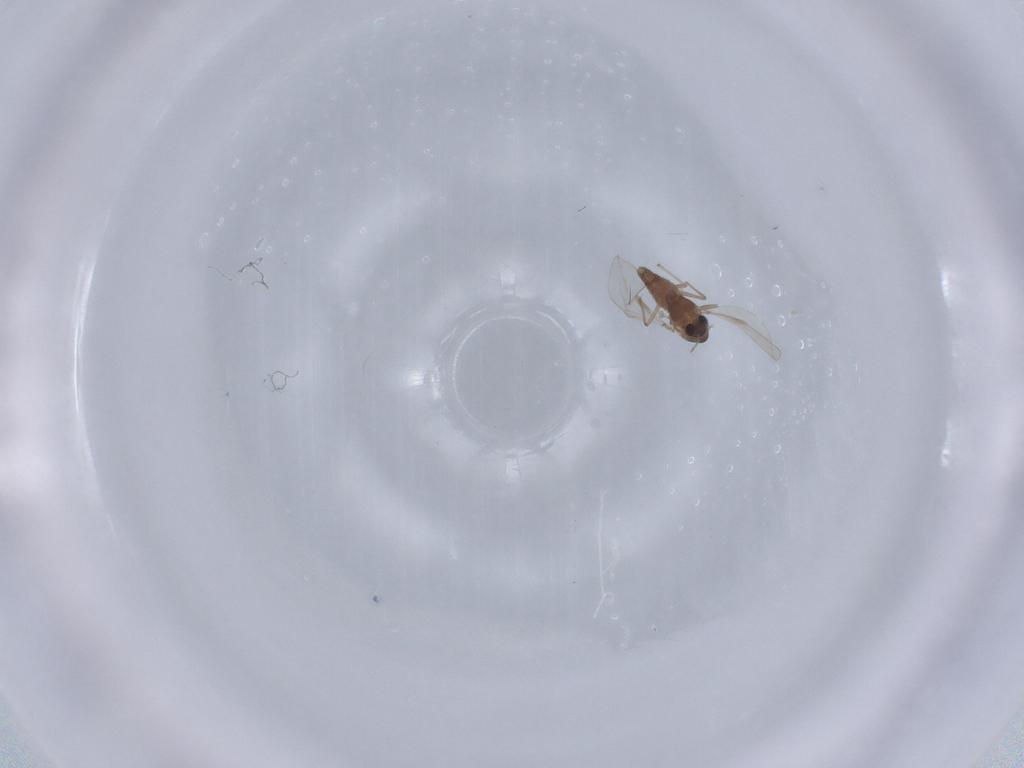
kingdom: Animalia
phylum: Arthropoda
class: Insecta
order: Diptera
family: Chironomidae
